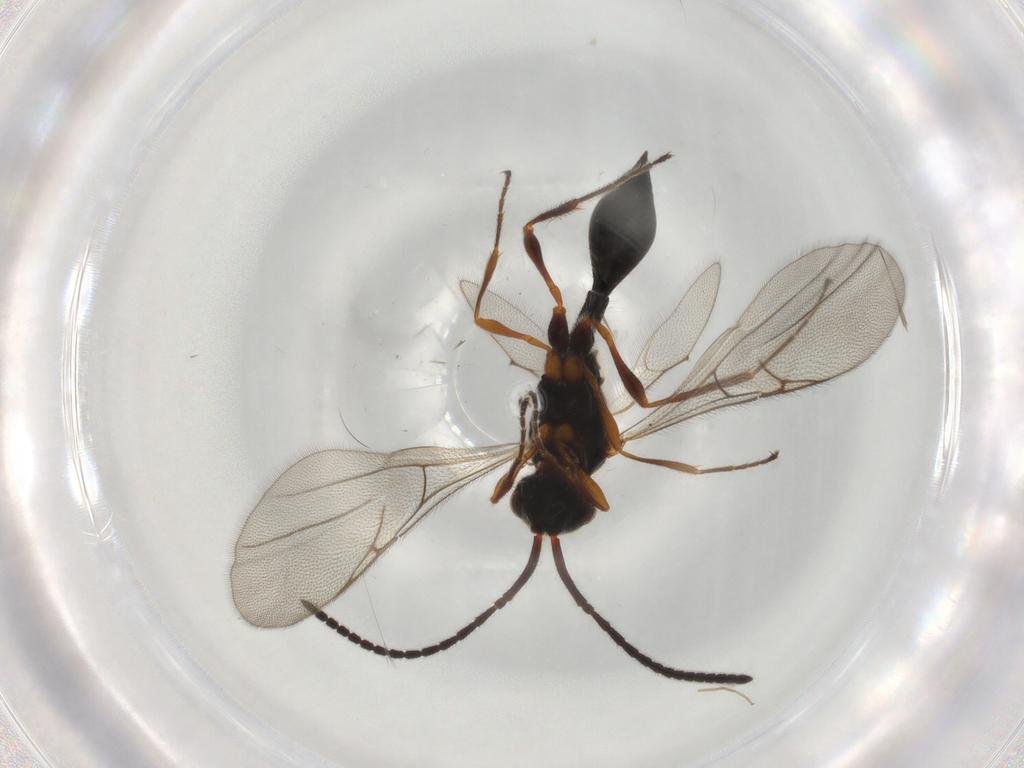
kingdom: Animalia
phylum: Arthropoda
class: Insecta
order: Hymenoptera
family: Diapriidae
